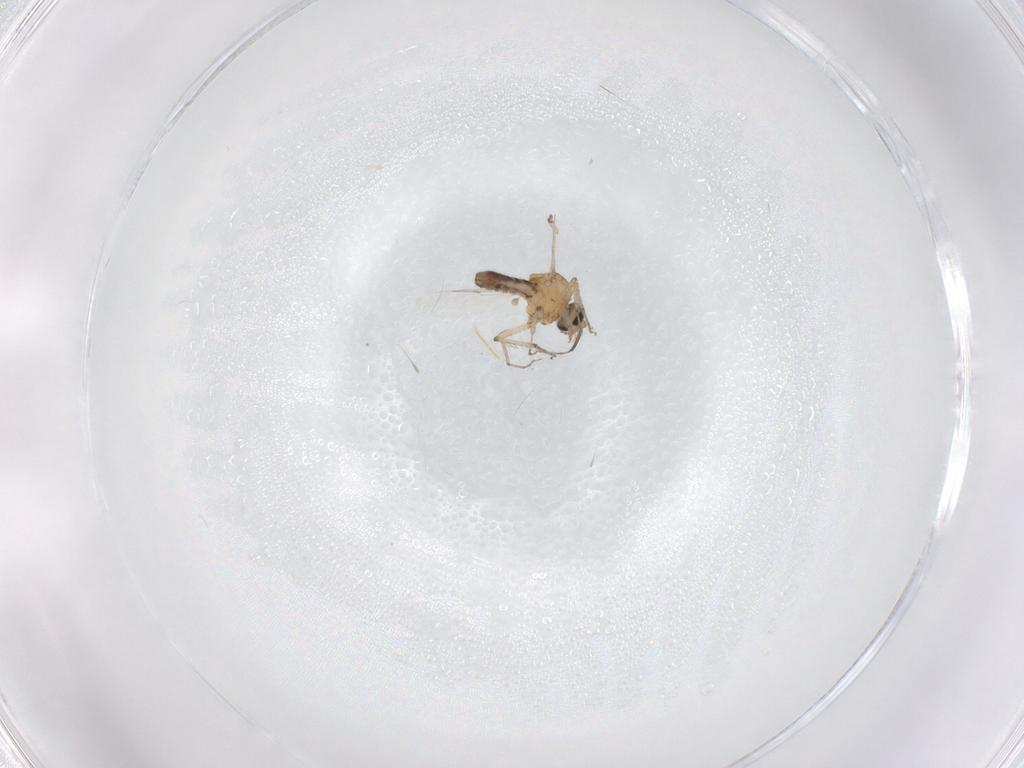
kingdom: Animalia
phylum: Arthropoda
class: Insecta
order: Diptera
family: Ceratopogonidae
